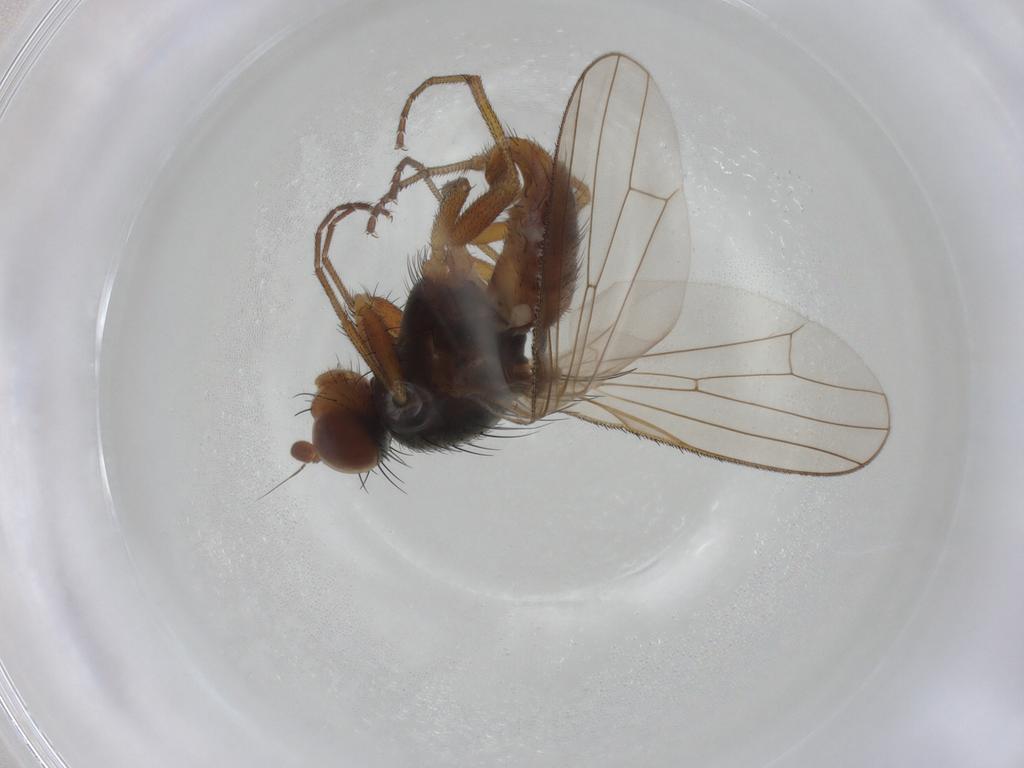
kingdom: Animalia
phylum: Arthropoda
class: Insecta
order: Diptera
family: Heleomyzidae
